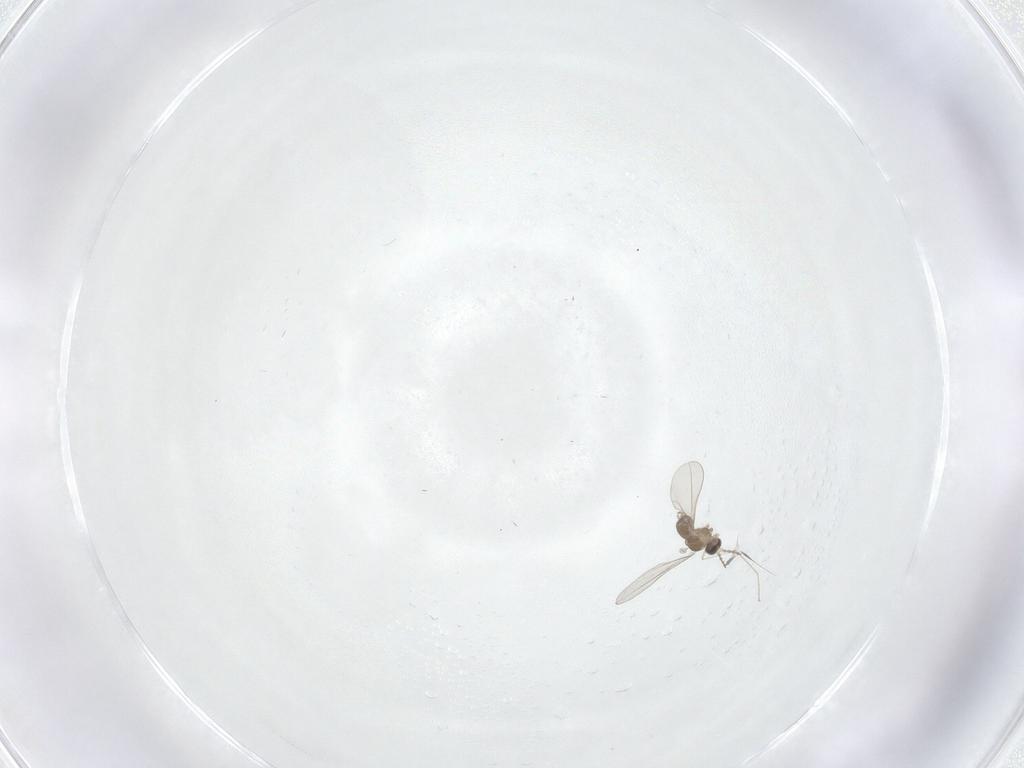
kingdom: Animalia
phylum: Arthropoda
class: Insecta
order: Diptera
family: Cecidomyiidae
